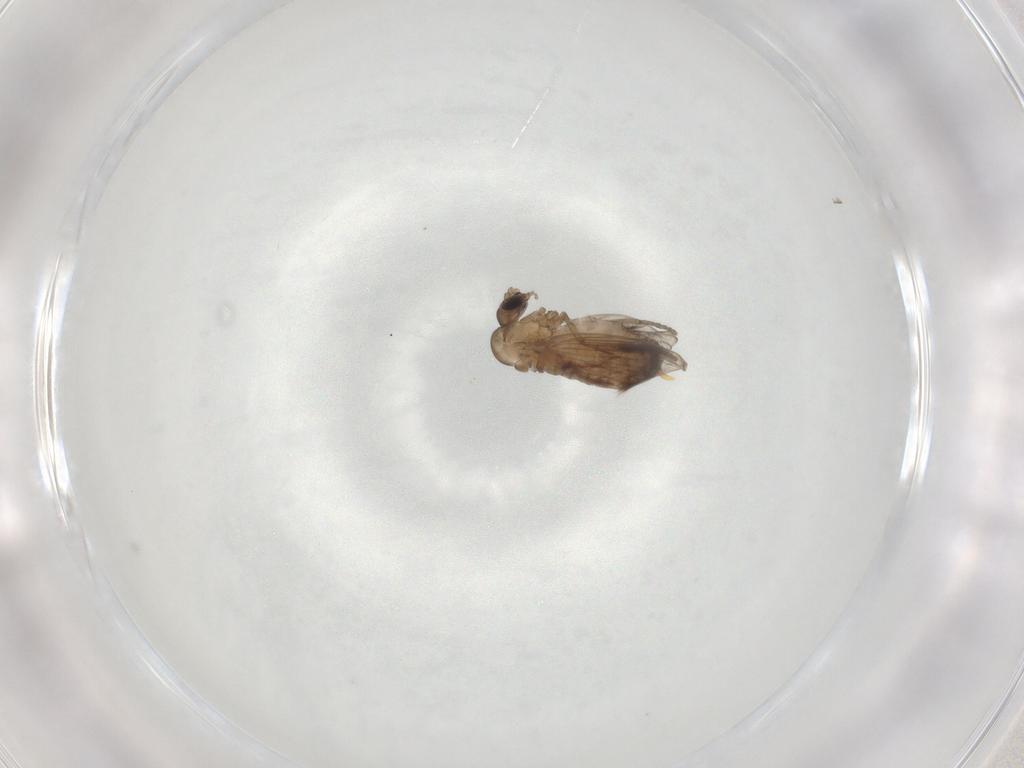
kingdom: Animalia
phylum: Arthropoda
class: Insecta
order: Diptera
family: Psychodidae
